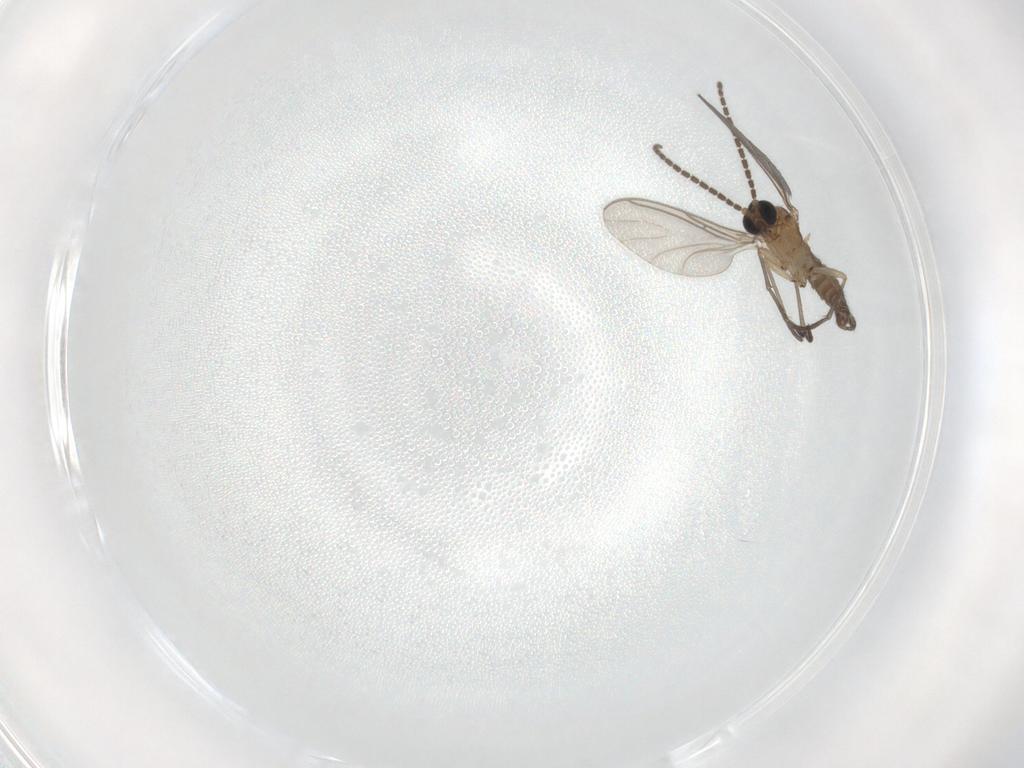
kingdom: Animalia
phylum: Arthropoda
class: Insecta
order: Diptera
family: Sciaridae
